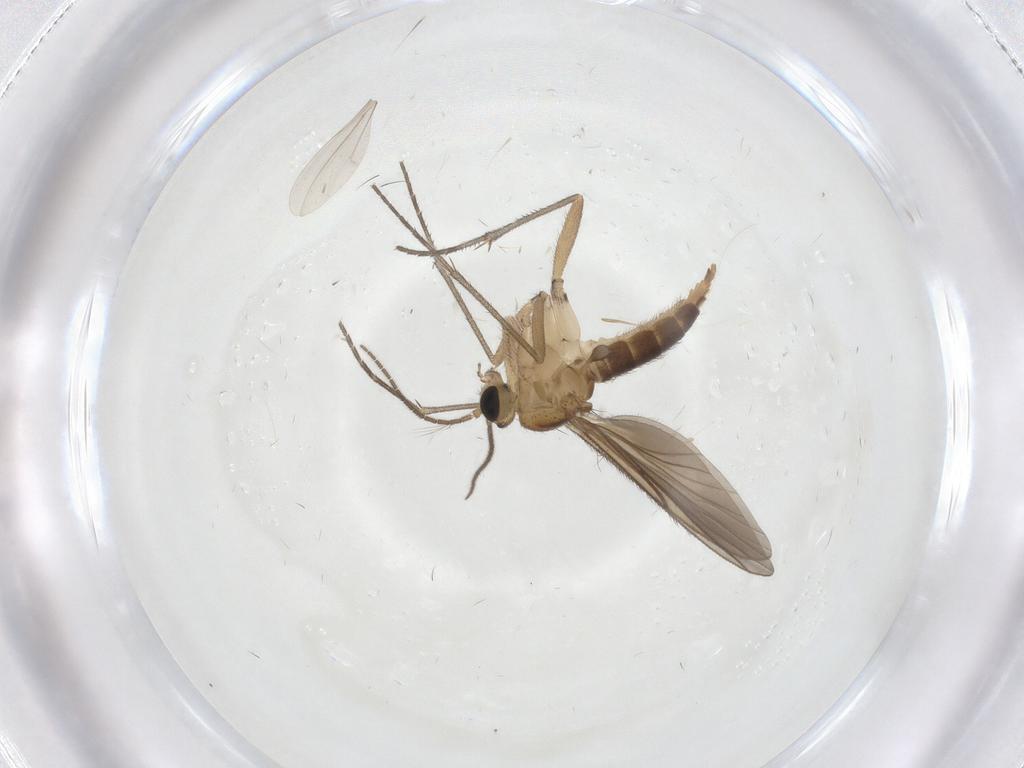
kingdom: Animalia
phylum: Arthropoda
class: Insecta
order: Diptera
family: Sciaridae
